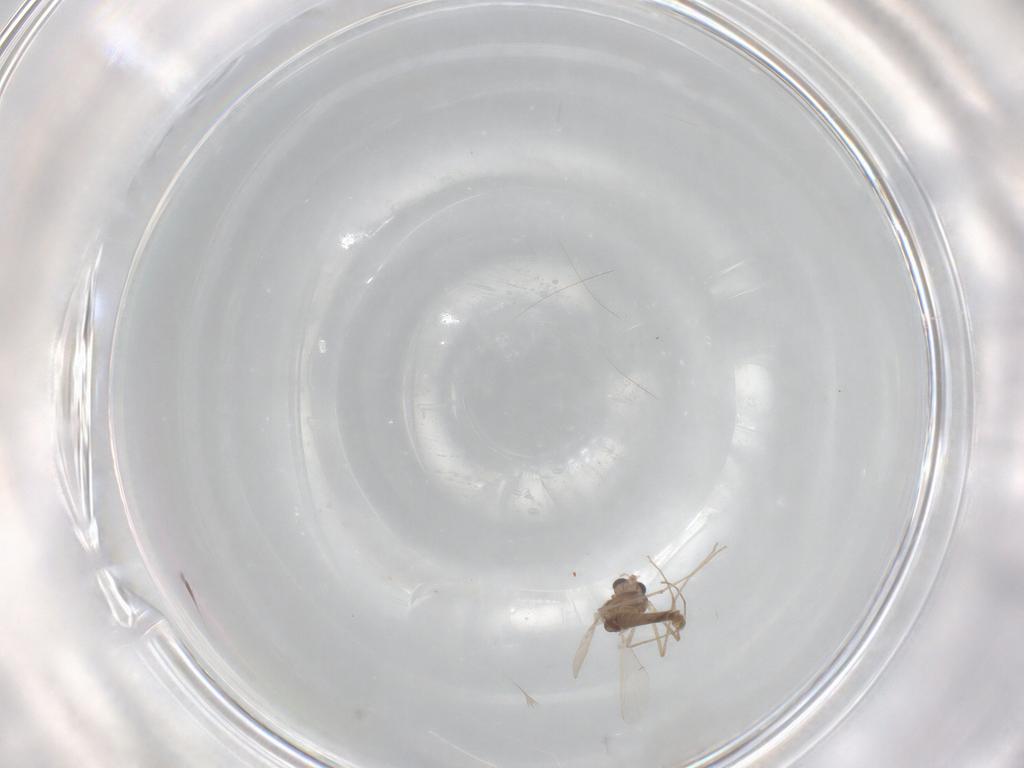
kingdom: Animalia
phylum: Arthropoda
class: Insecta
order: Diptera
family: Chironomidae
